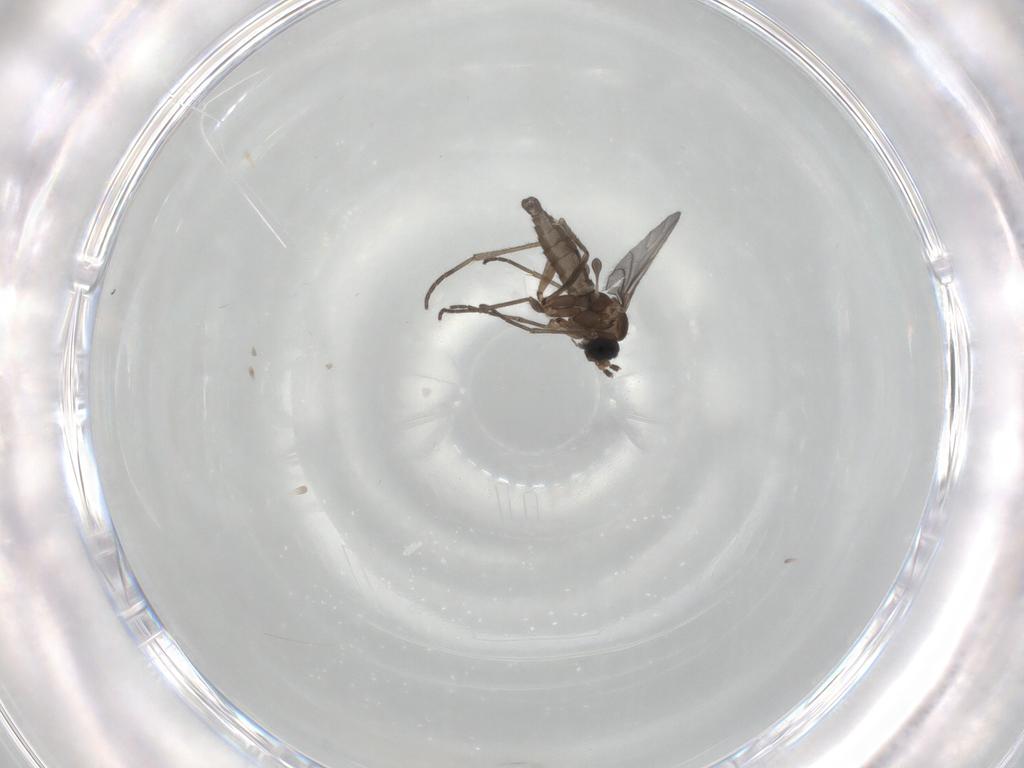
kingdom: Animalia
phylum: Arthropoda
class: Insecta
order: Diptera
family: Sciaridae
